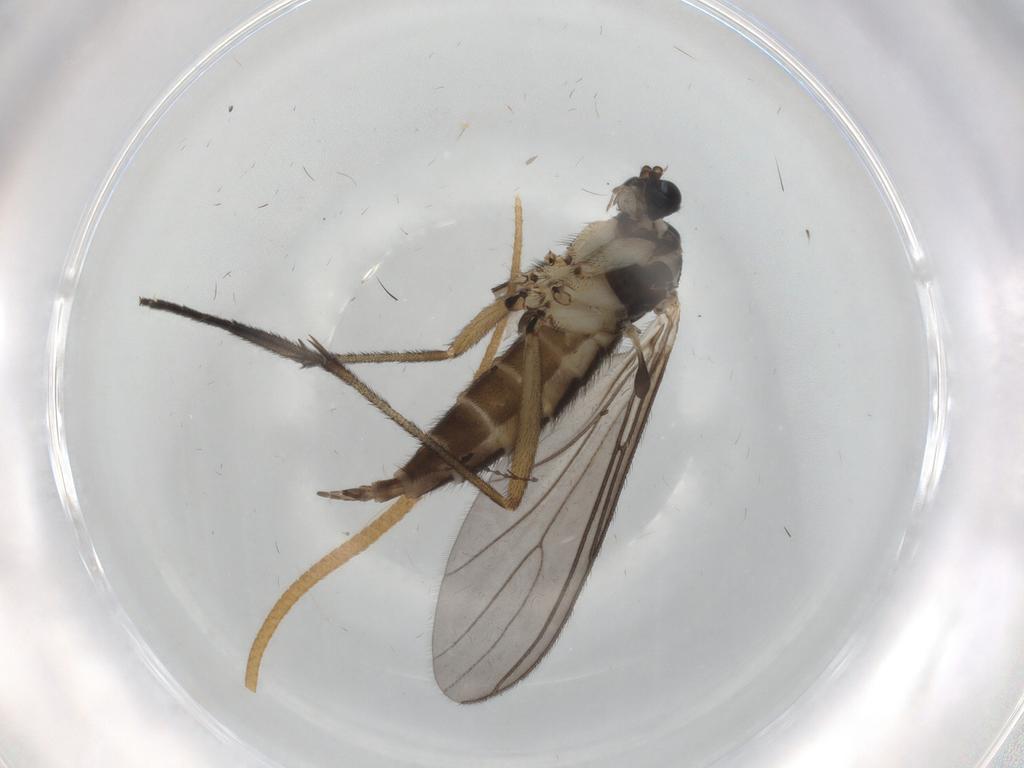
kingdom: Animalia
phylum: Arthropoda
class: Insecta
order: Diptera
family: Sciaridae
